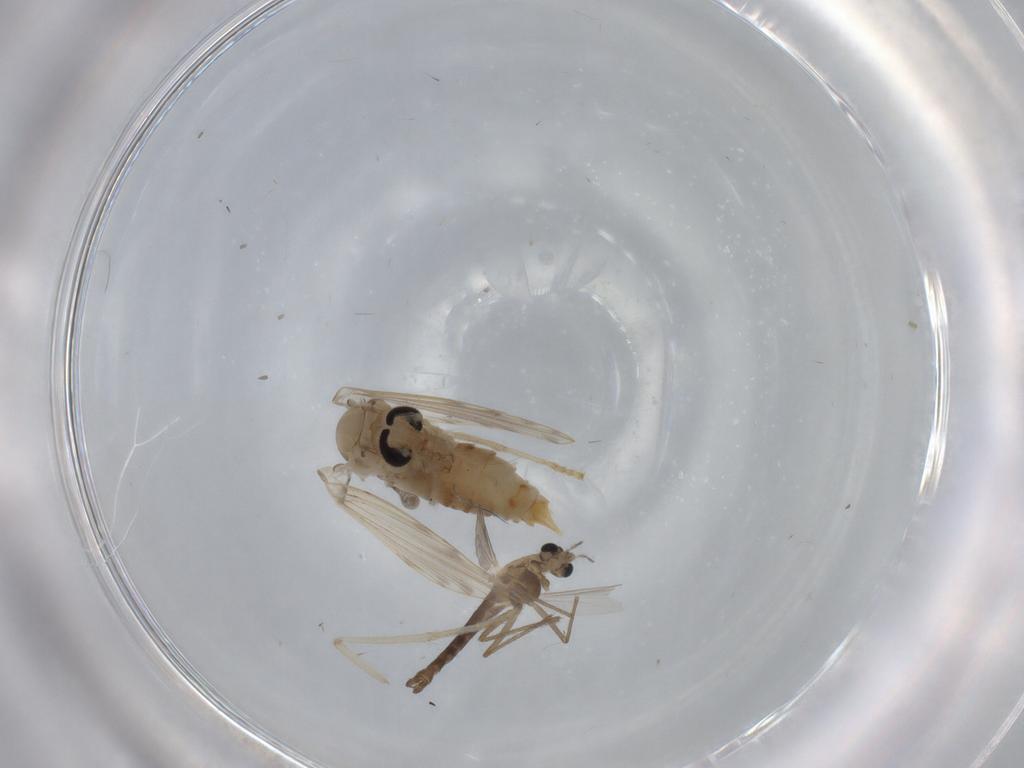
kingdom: Animalia
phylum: Arthropoda
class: Insecta
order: Diptera
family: Psychodidae
